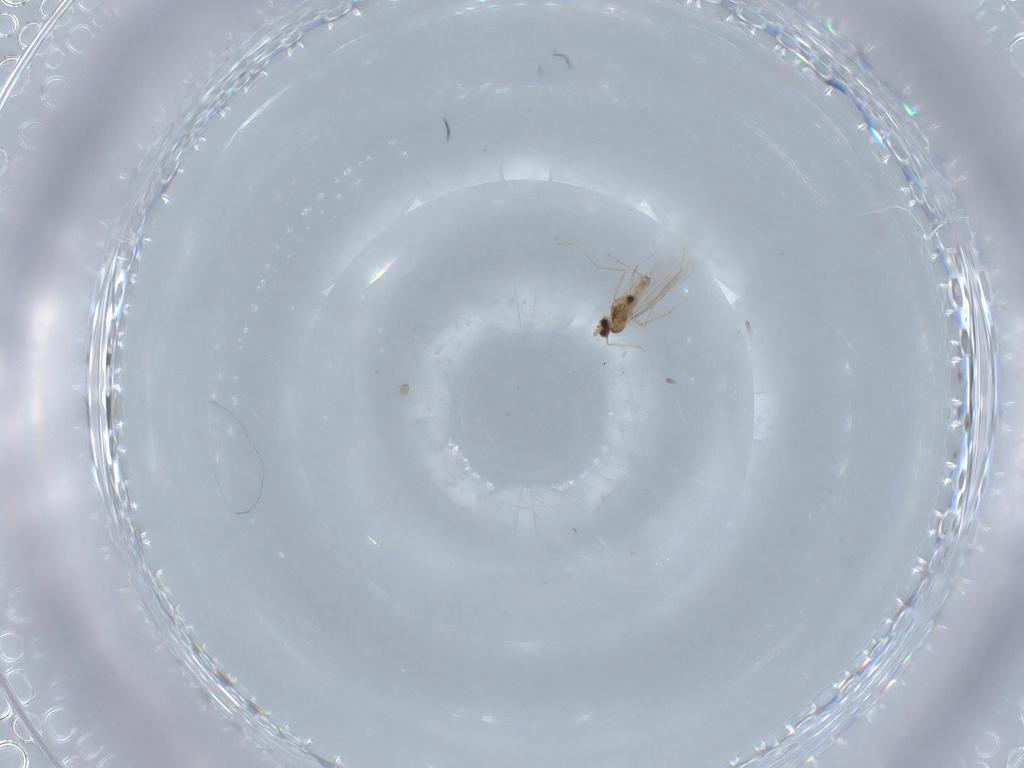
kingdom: Animalia
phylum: Arthropoda
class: Insecta
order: Diptera
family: Cecidomyiidae
